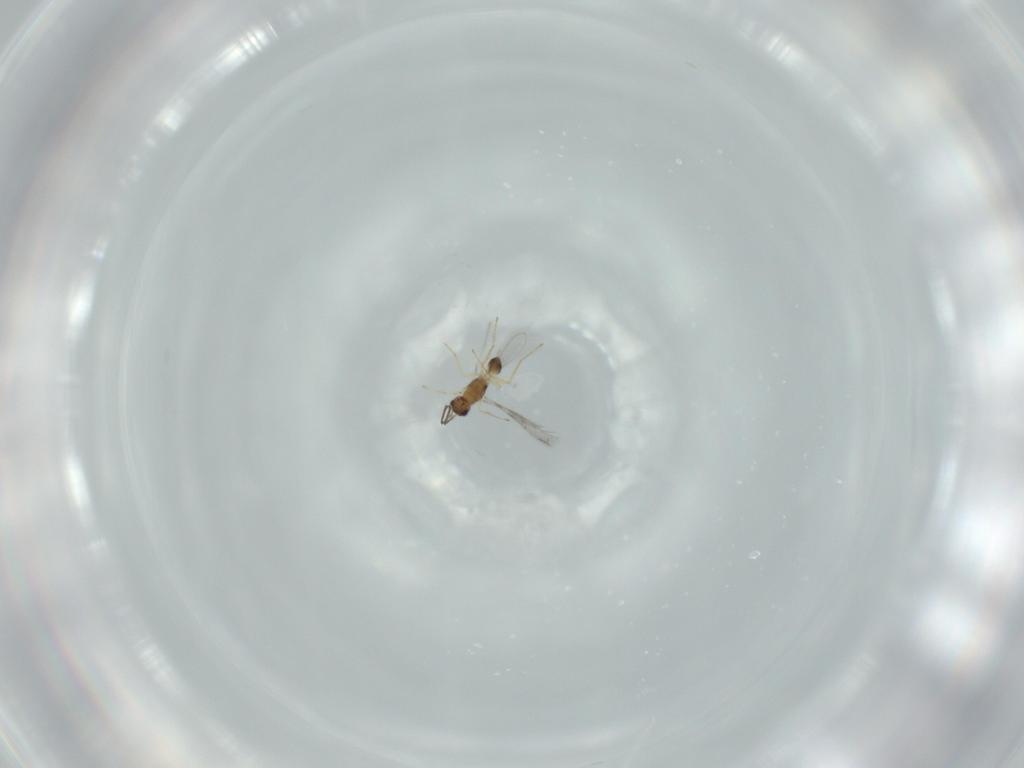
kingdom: Animalia
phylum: Arthropoda
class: Insecta
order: Hymenoptera
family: Mymaridae
